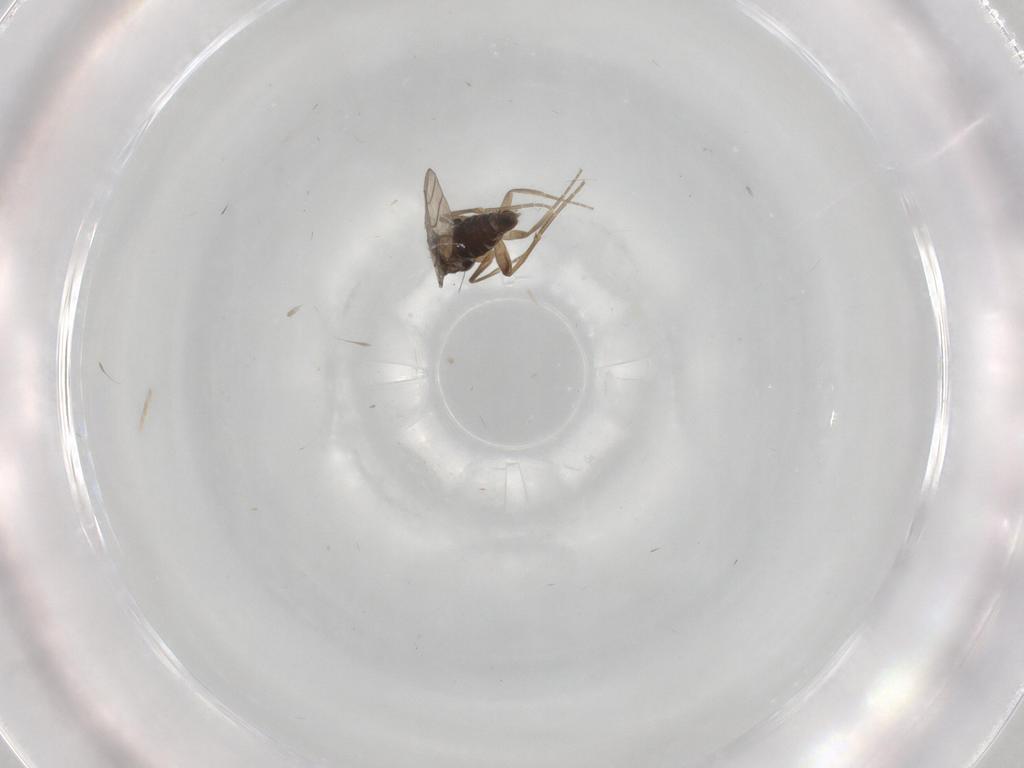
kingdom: Animalia
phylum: Arthropoda
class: Insecta
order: Diptera
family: Phoridae
